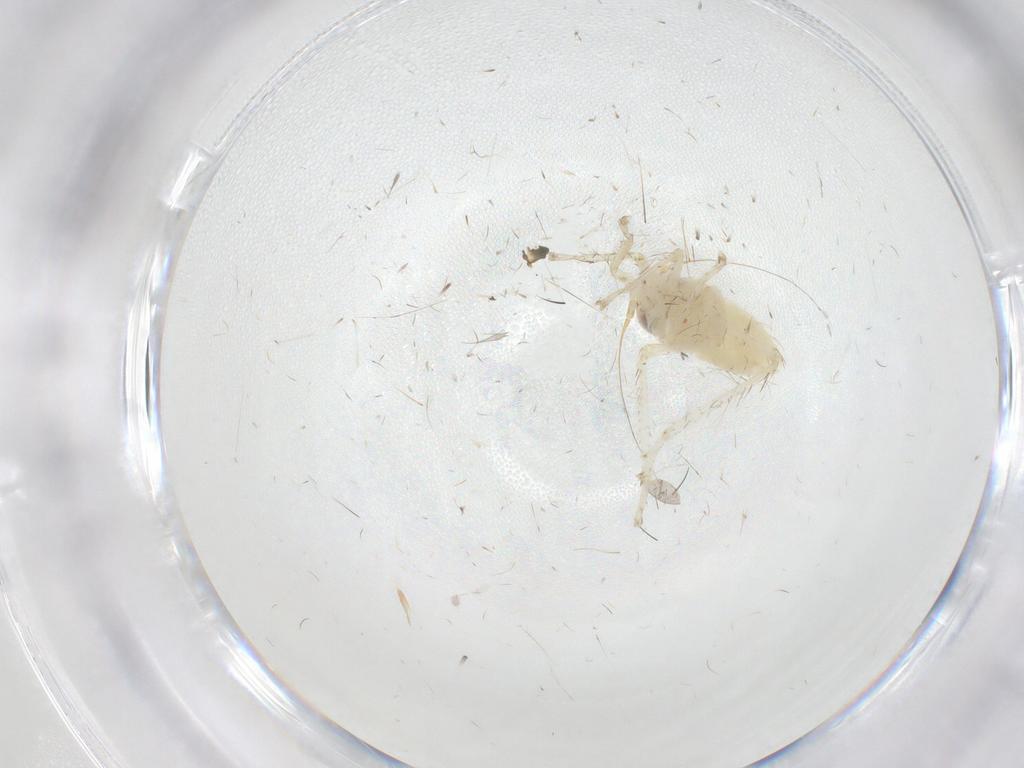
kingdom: Animalia
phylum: Arthropoda
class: Insecta
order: Hemiptera
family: Cicadellidae
